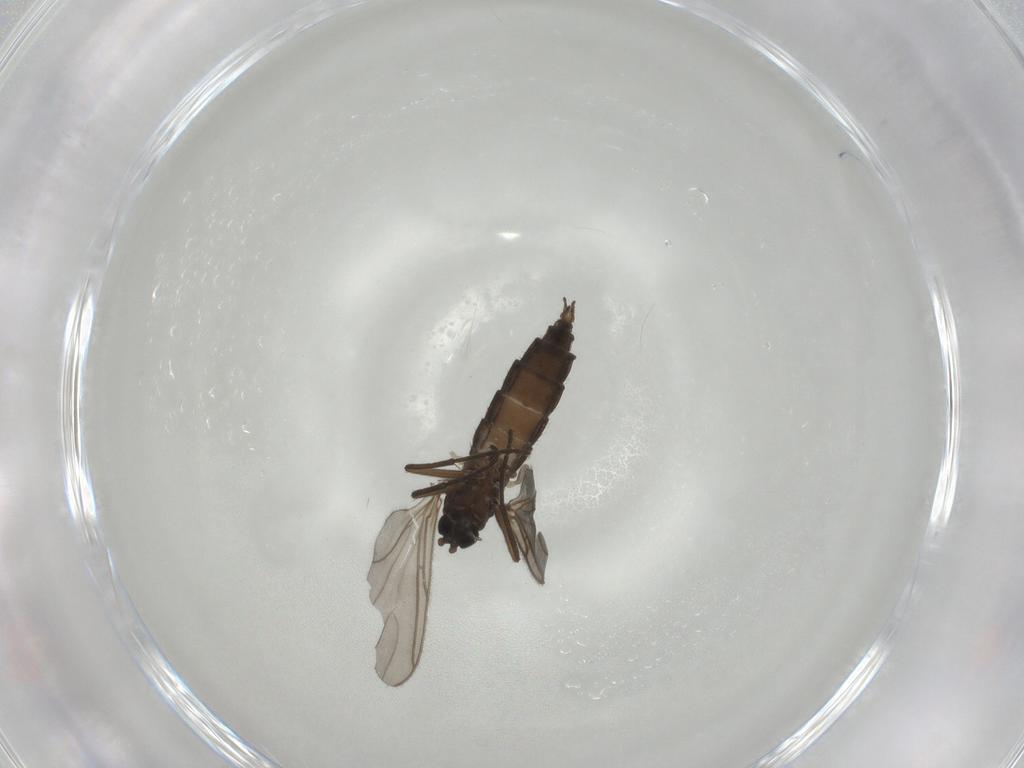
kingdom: Animalia
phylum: Arthropoda
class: Insecta
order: Diptera
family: Sciaridae
